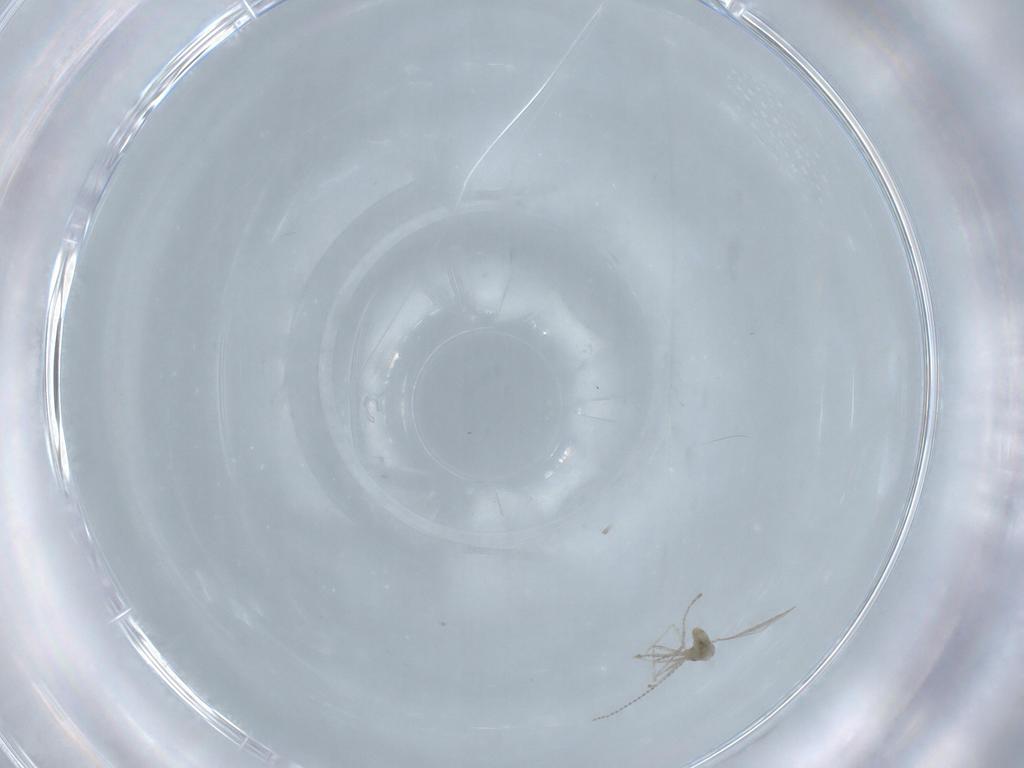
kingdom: Animalia
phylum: Arthropoda
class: Insecta
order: Diptera
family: Cecidomyiidae
